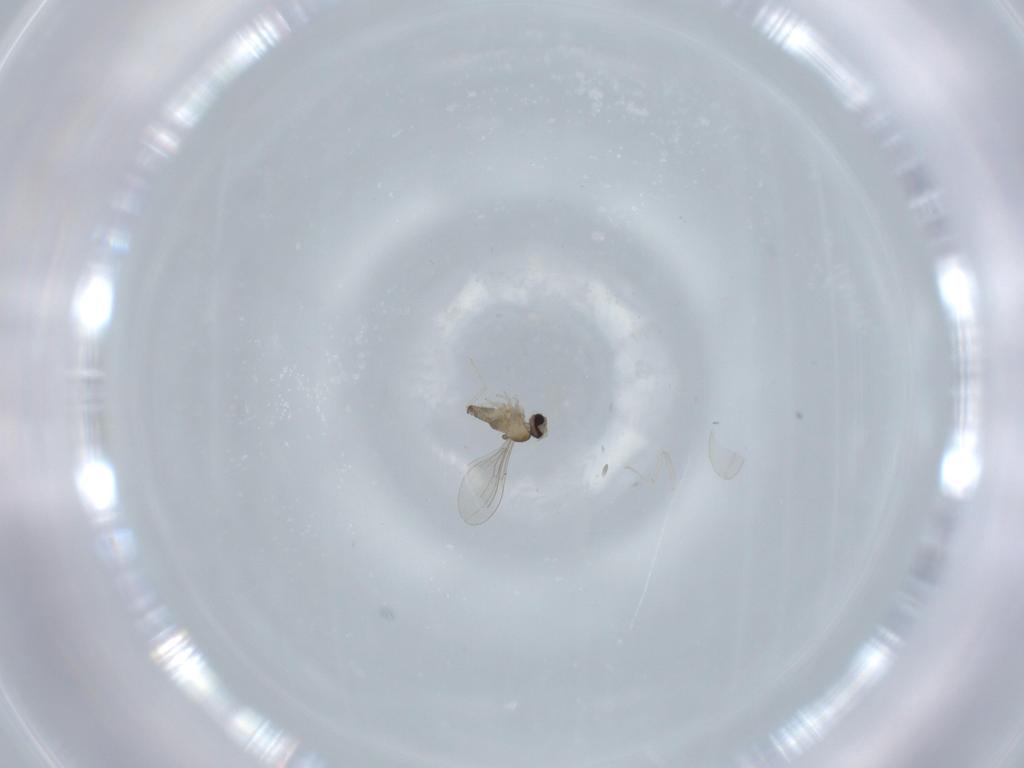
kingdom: Animalia
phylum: Arthropoda
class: Insecta
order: Diptera
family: Cecidomyiidae
